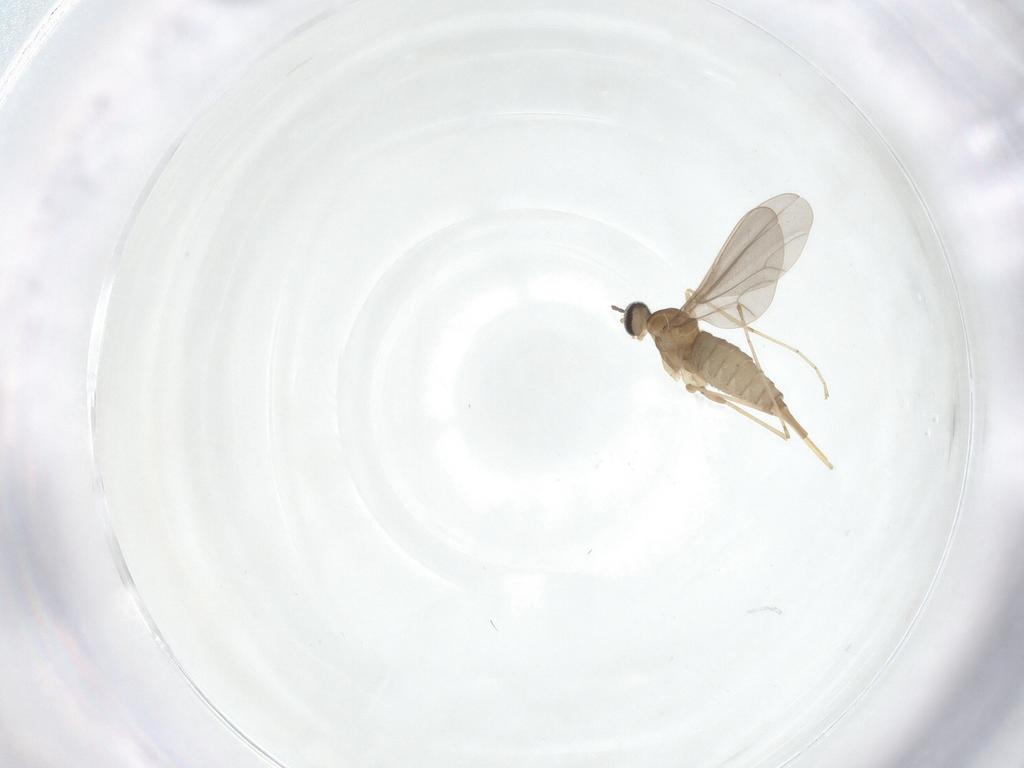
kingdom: Animalia
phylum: Arthropoda
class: Insecta
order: Diptera
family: Cecidomyiidae
